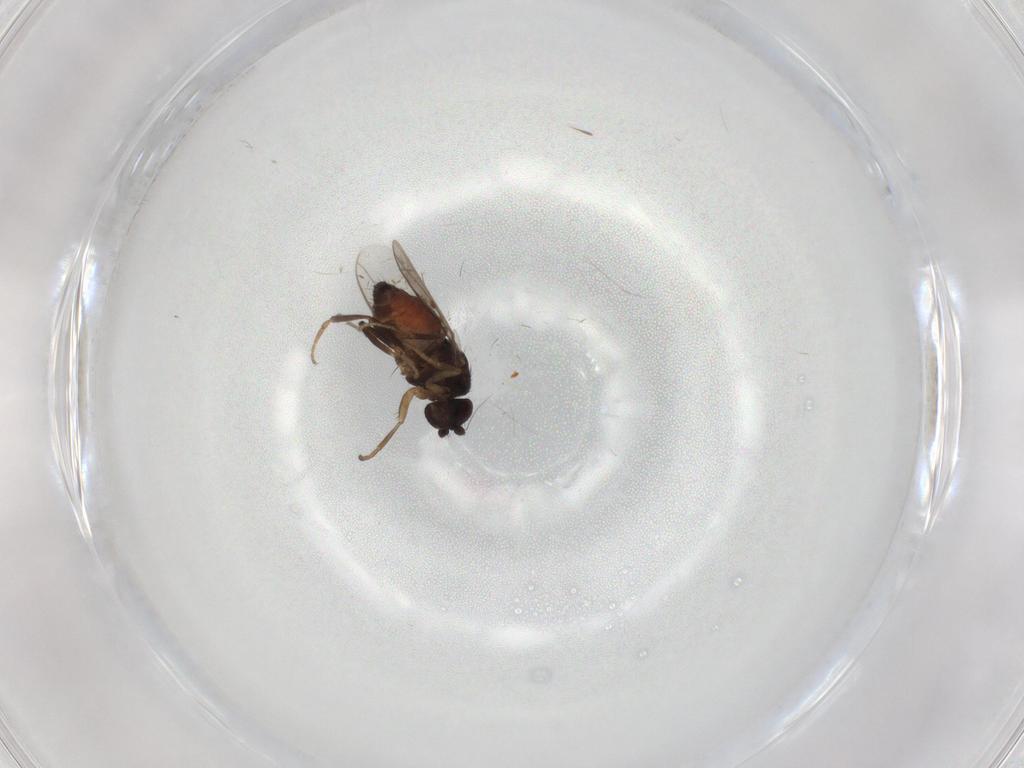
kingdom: Animalia
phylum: Arthropoda
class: Insecta
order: Diptera
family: Sphaeroceridae
